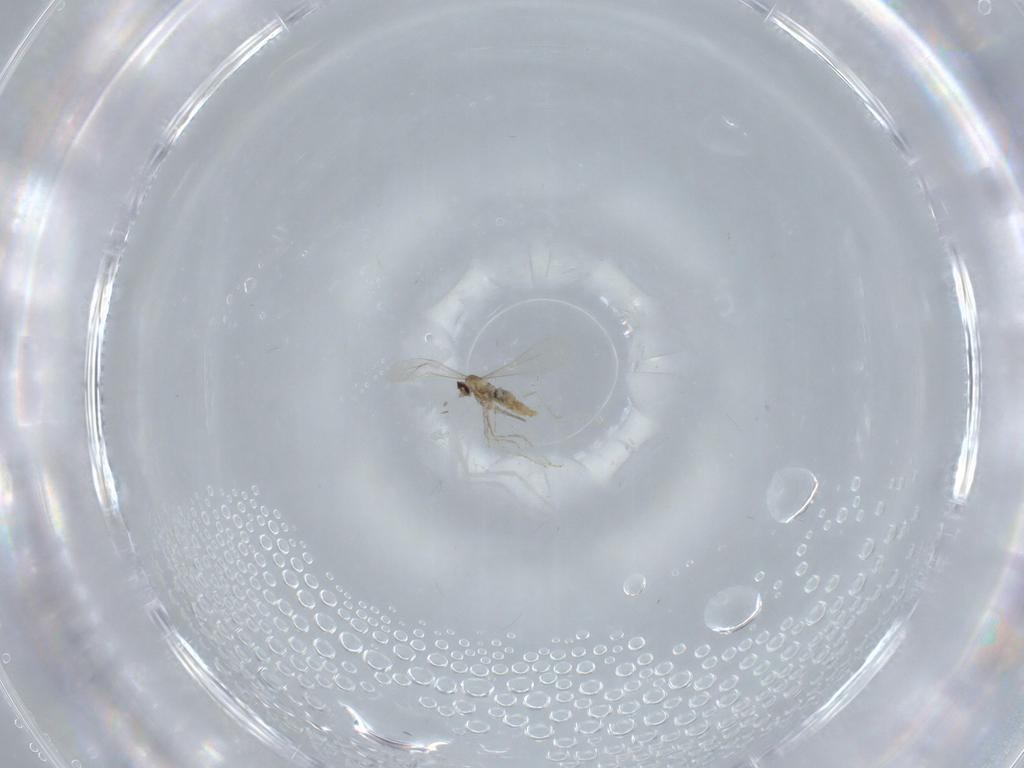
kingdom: Animalia
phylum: Arthropoda
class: Insecta
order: Diptera
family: Cecidomyiidae
